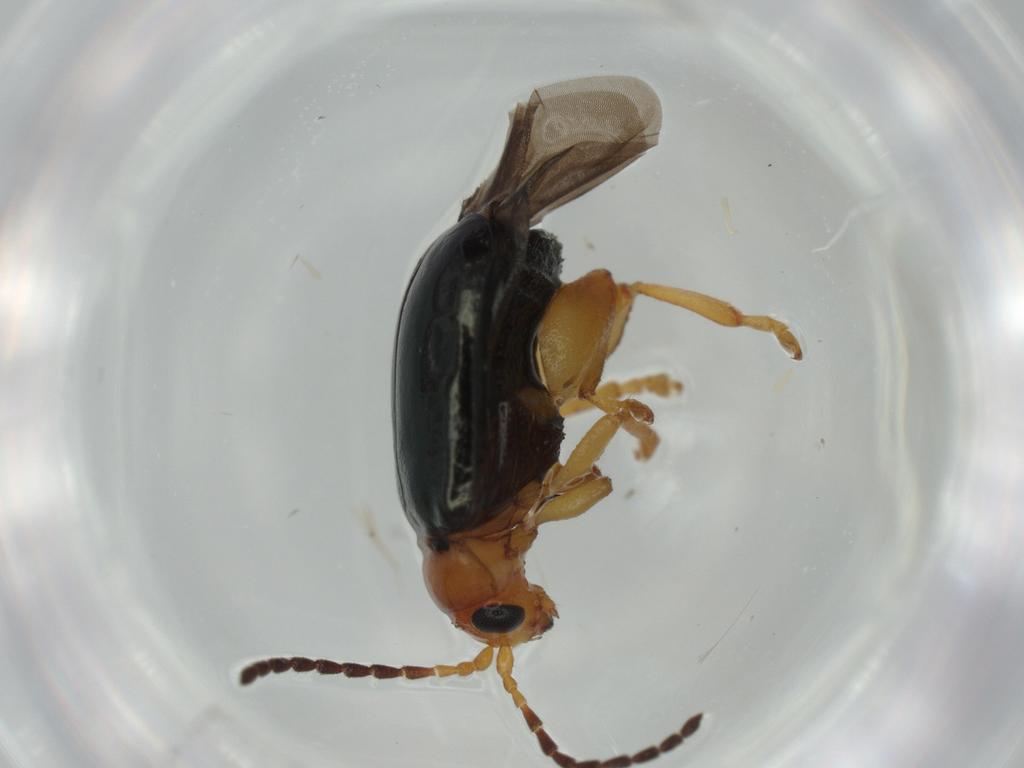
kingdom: Animalia
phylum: Arthropoda
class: Insecta
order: Coleoptera
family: Chrysomelidae
